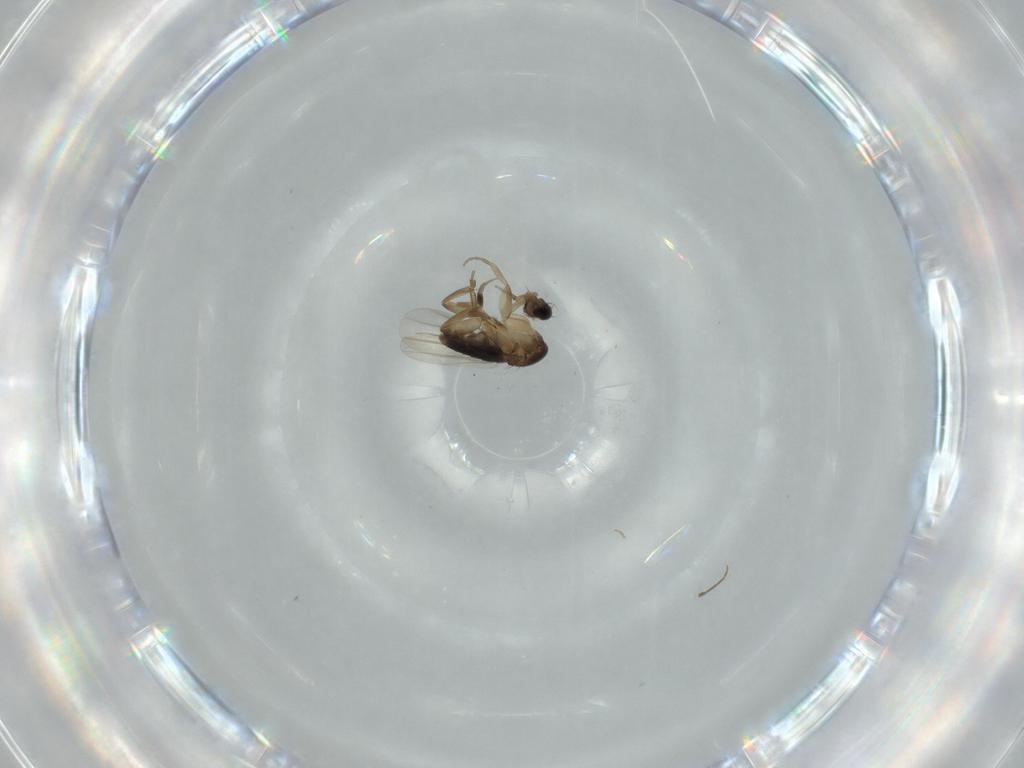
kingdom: Animalia
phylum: Arthropoda
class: Insecta
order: Diptera
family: Phoridae
